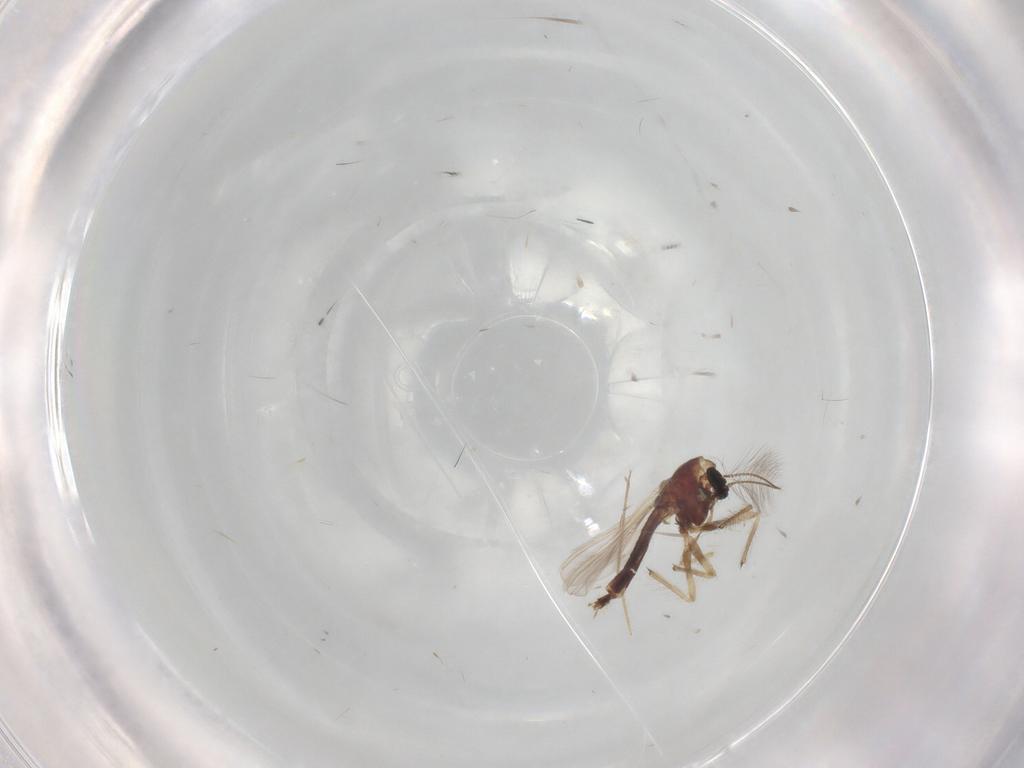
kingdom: Animalia
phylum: Arthropoda
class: Insecta
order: Diptera
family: Chironomidae
